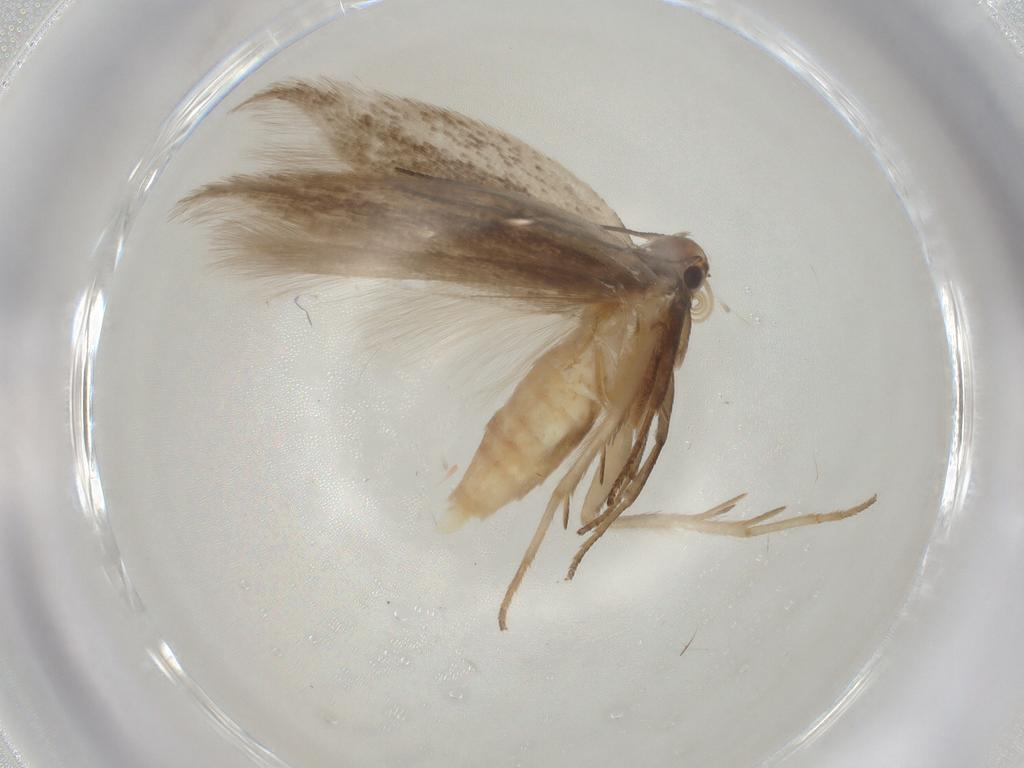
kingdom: Animalia
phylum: Arthropoda
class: Insecta
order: Lepidoptera
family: Gelechiidae
